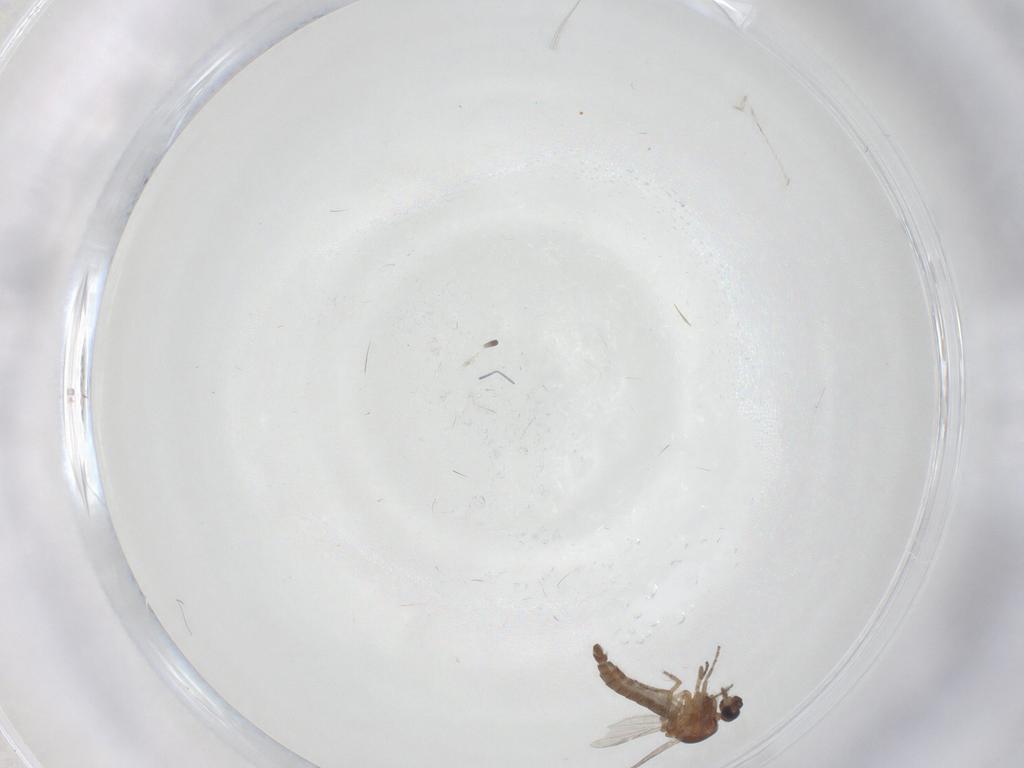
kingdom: Animalia
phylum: Arthropoda
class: Insecta
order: Diptera
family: Ceratopogonidae
